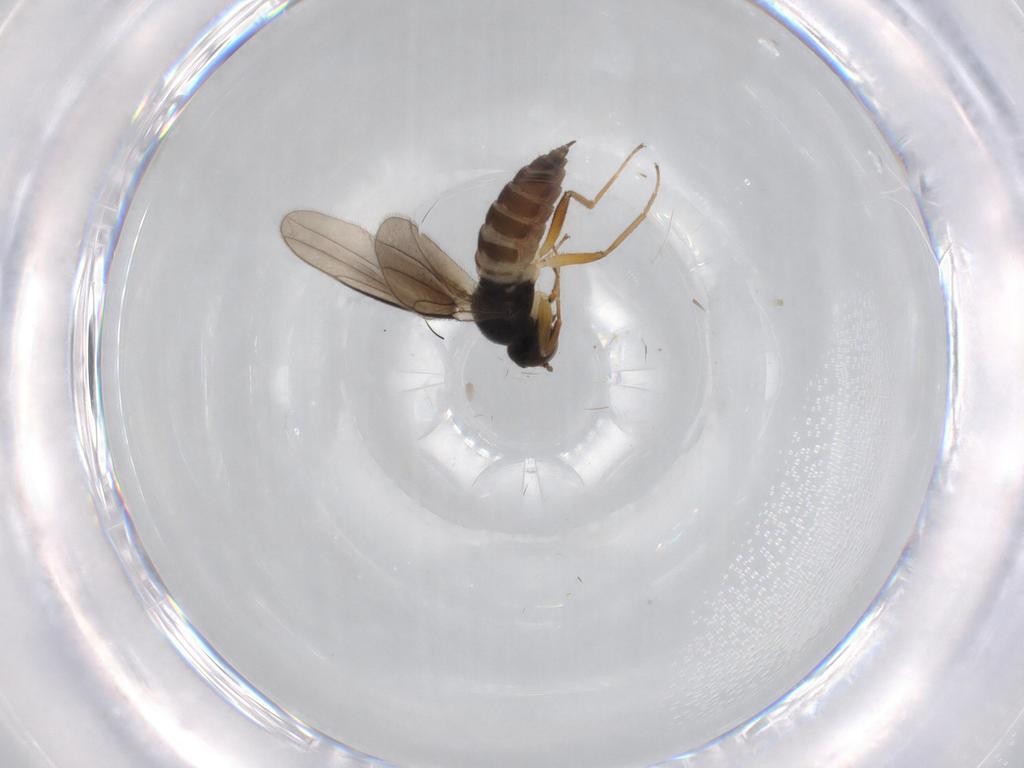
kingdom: Animalia
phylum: Arthropoda
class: Insecta
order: Diptera
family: Hybotidae
